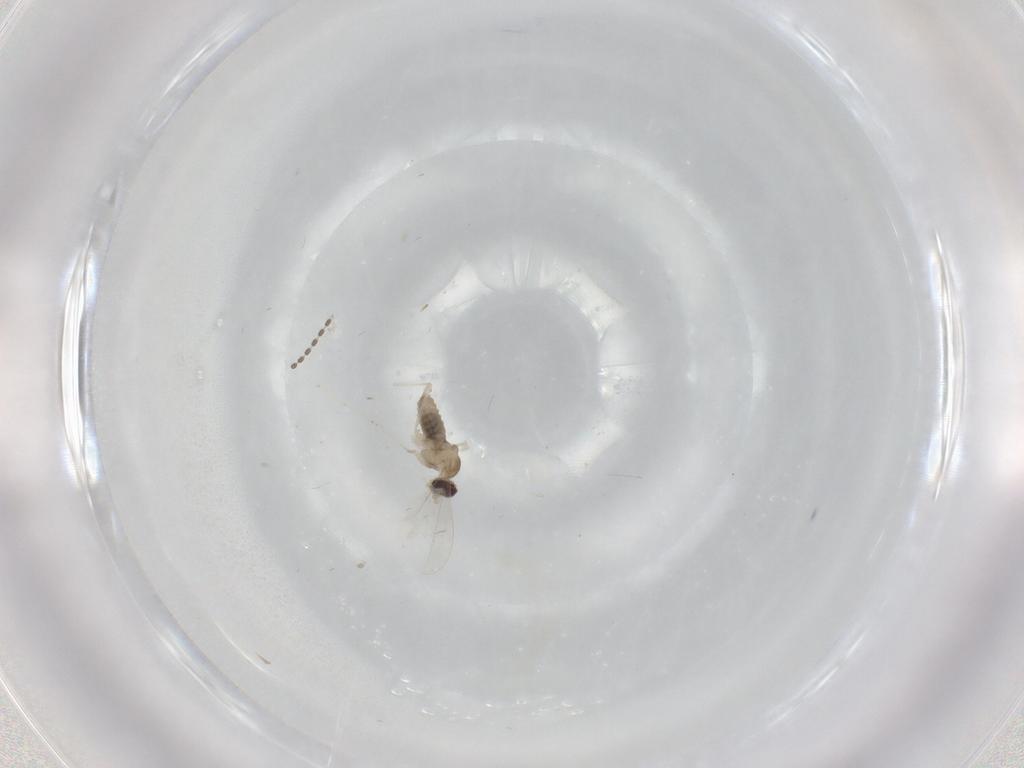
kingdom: Animalia
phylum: Arthropoda
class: Insecta
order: Diptera
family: Cecidomyiidae
